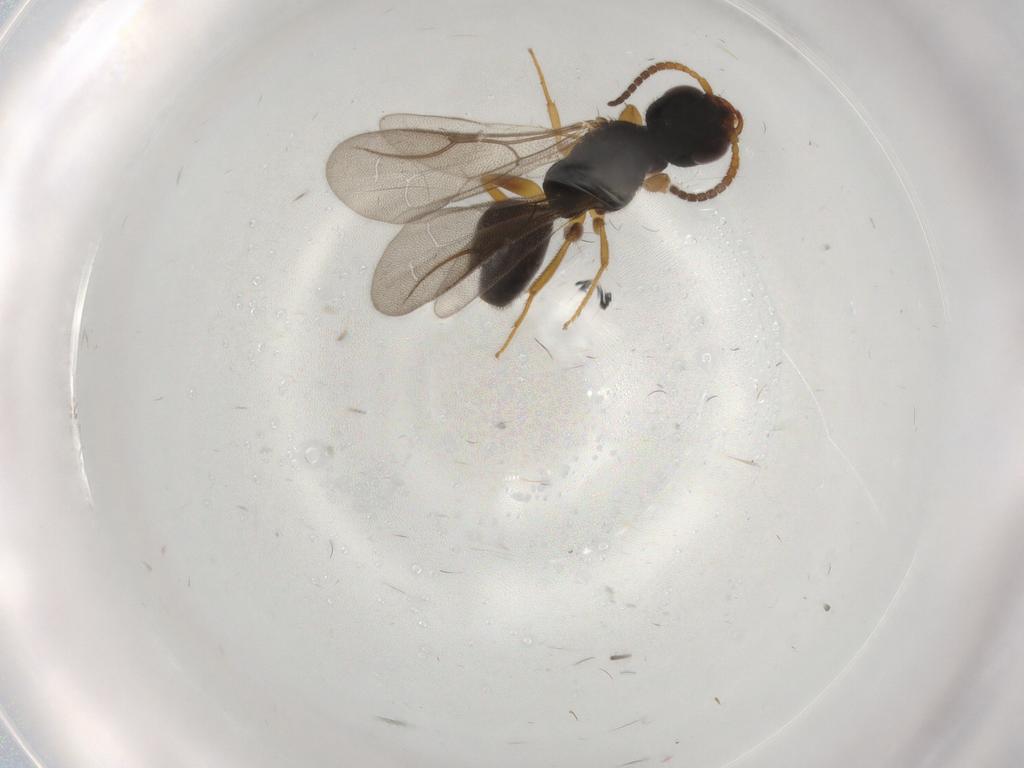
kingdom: Animalia
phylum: Arthropoda
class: Insecta
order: Hymenoptera
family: Bethylidae
